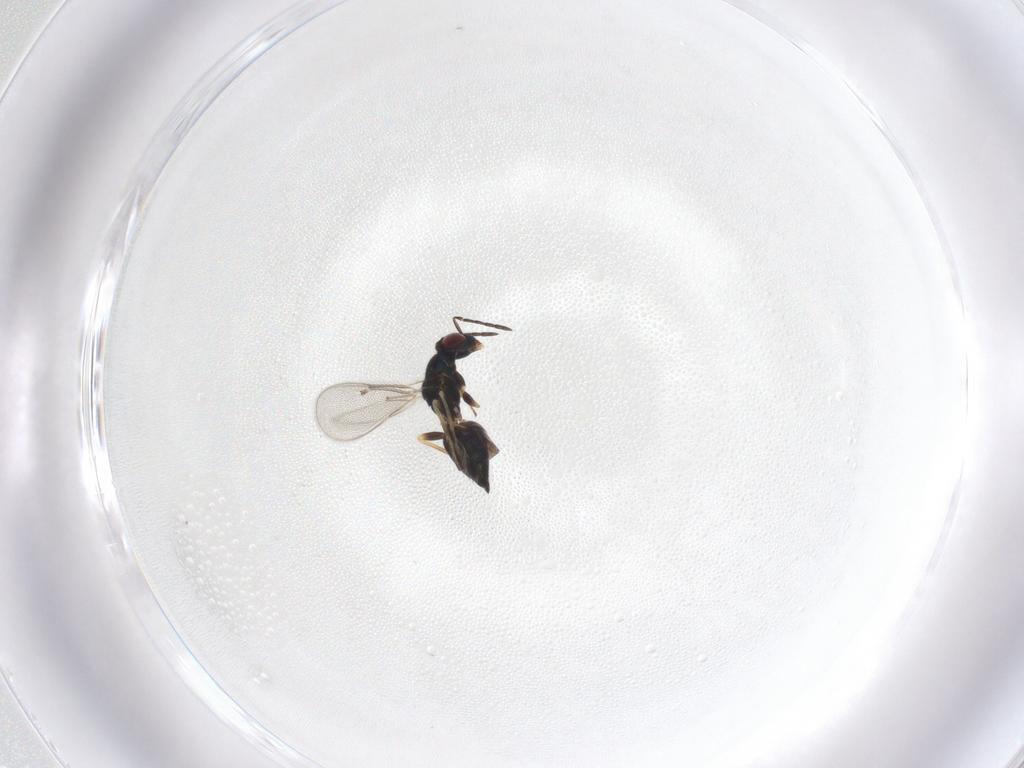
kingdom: Animalia
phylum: Arthropoda
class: Insecta
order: Hymenoptera
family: Eulophidae
